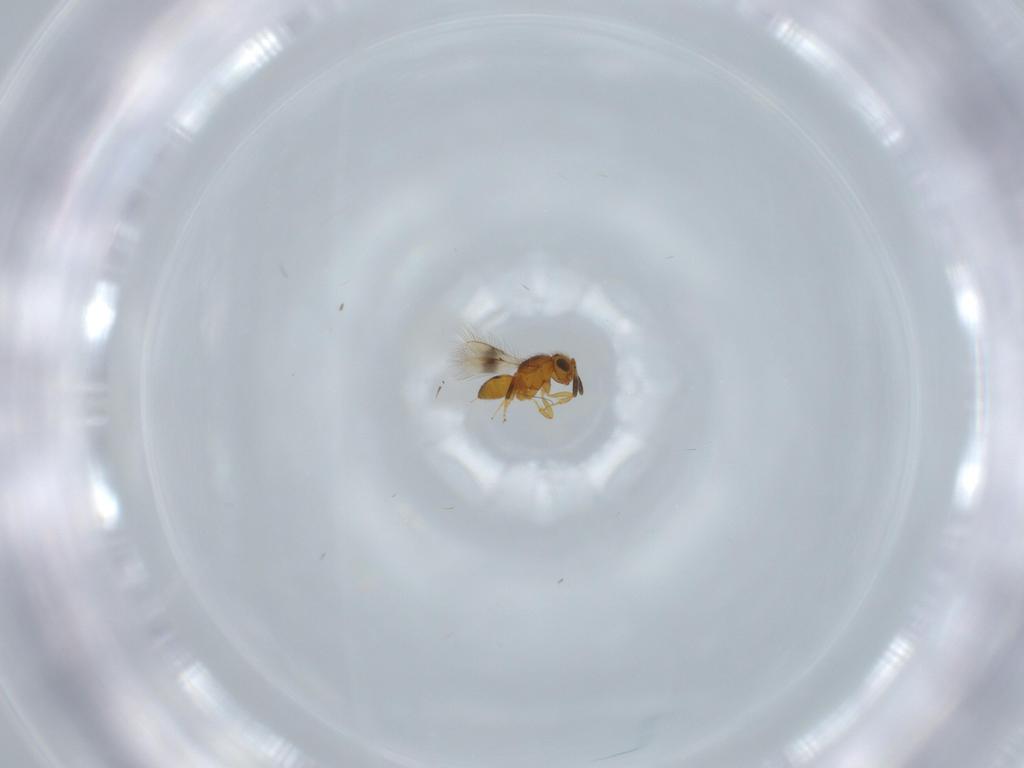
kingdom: Animalia
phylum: Arthropoda
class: Insecta
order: Hymenoptera
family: Scelionidae
